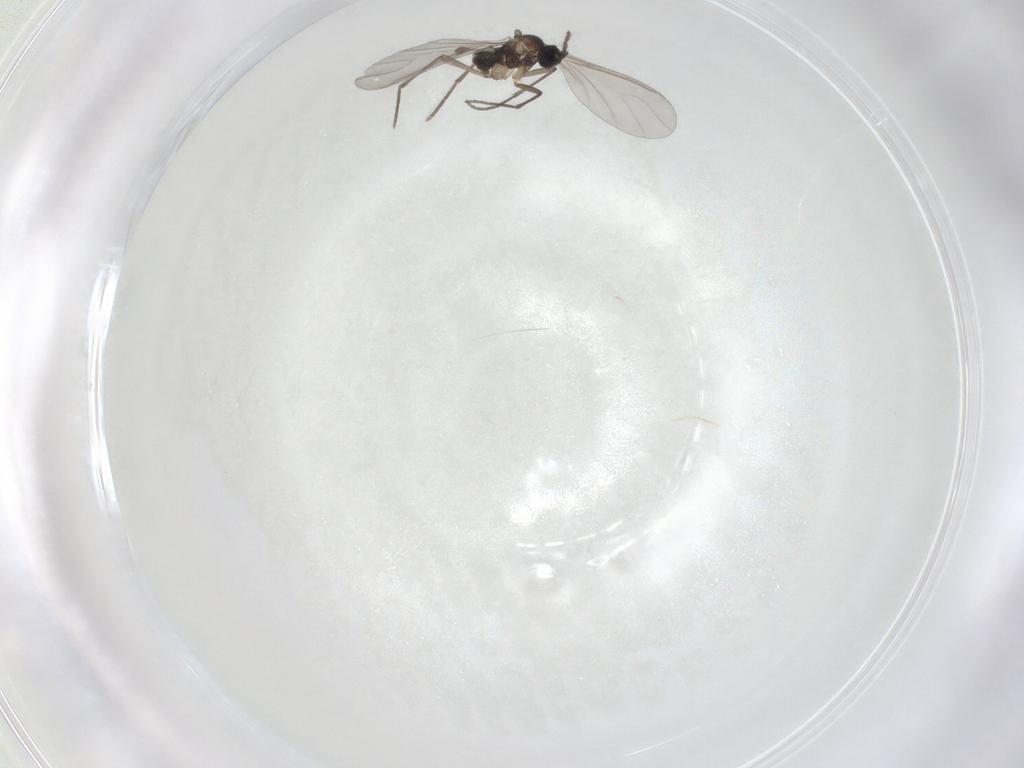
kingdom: Animalia
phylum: Arthropoda
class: Insecta
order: Diptera
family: Sciaridae
